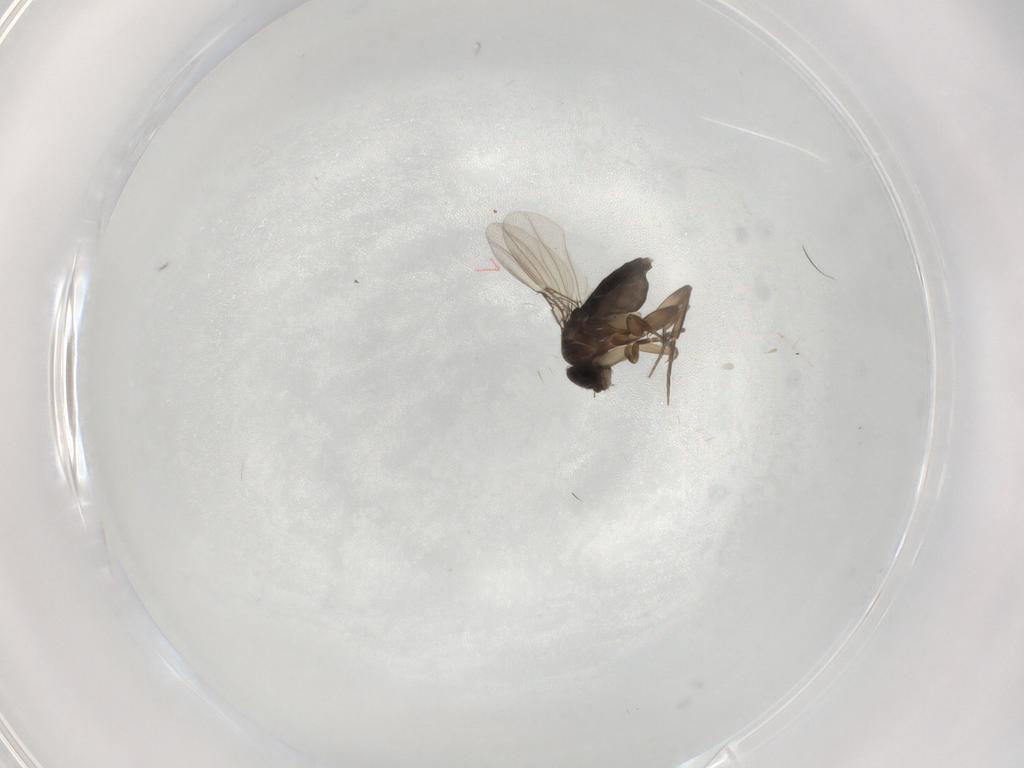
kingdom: Animalia
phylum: Arthropoda
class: Insecta
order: Diptera
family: Phoridae
